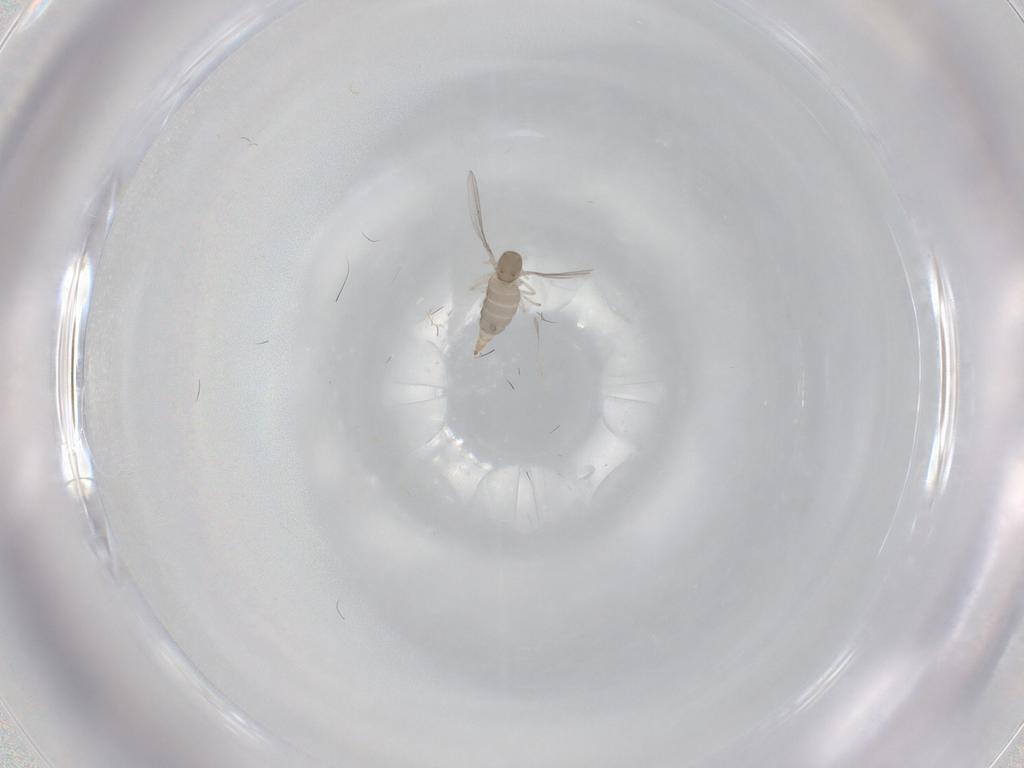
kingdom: Animalia
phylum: Arthropoda
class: Insecta
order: Diptera
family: Cecidomyiidae
